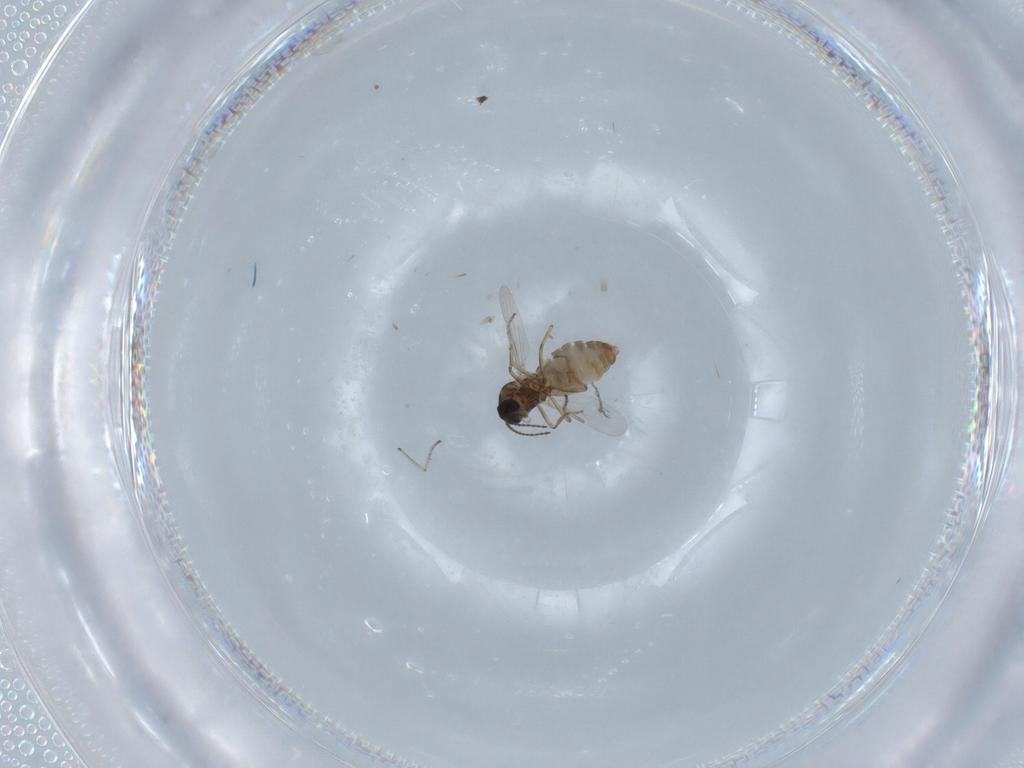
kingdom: Animalia
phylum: Arthropoda
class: Insecta
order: Diptera
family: Ceratopogonidae
